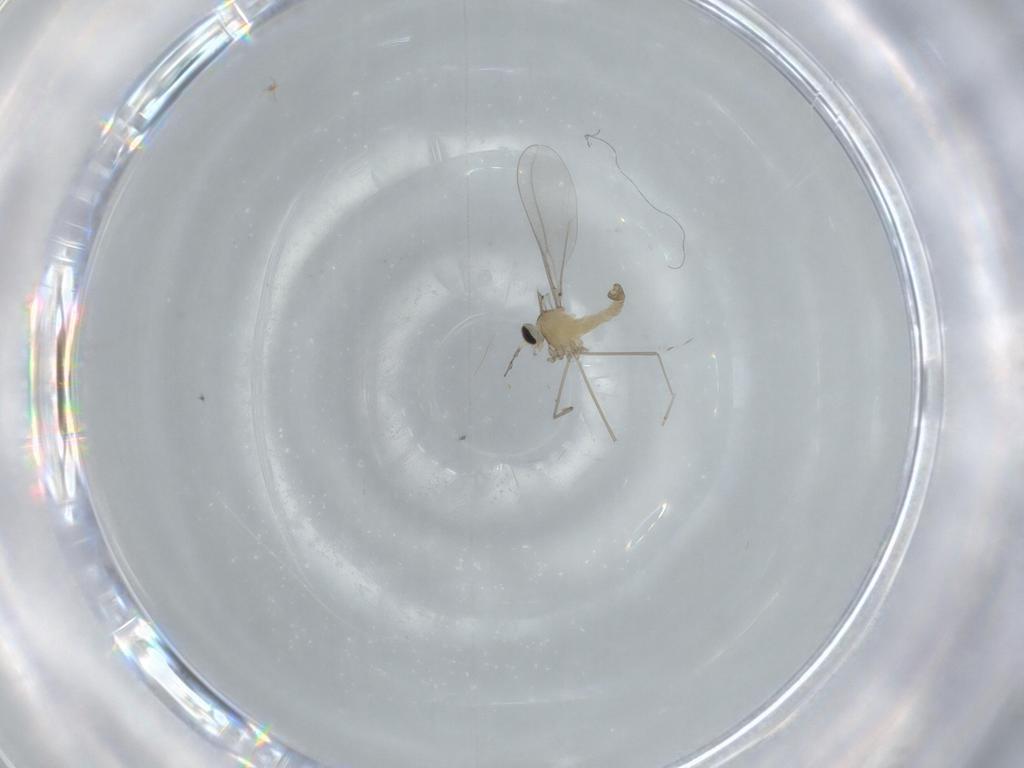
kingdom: Animalia
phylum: Arthropoda
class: Insecta
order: Diptera
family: Cecidomyiidae
